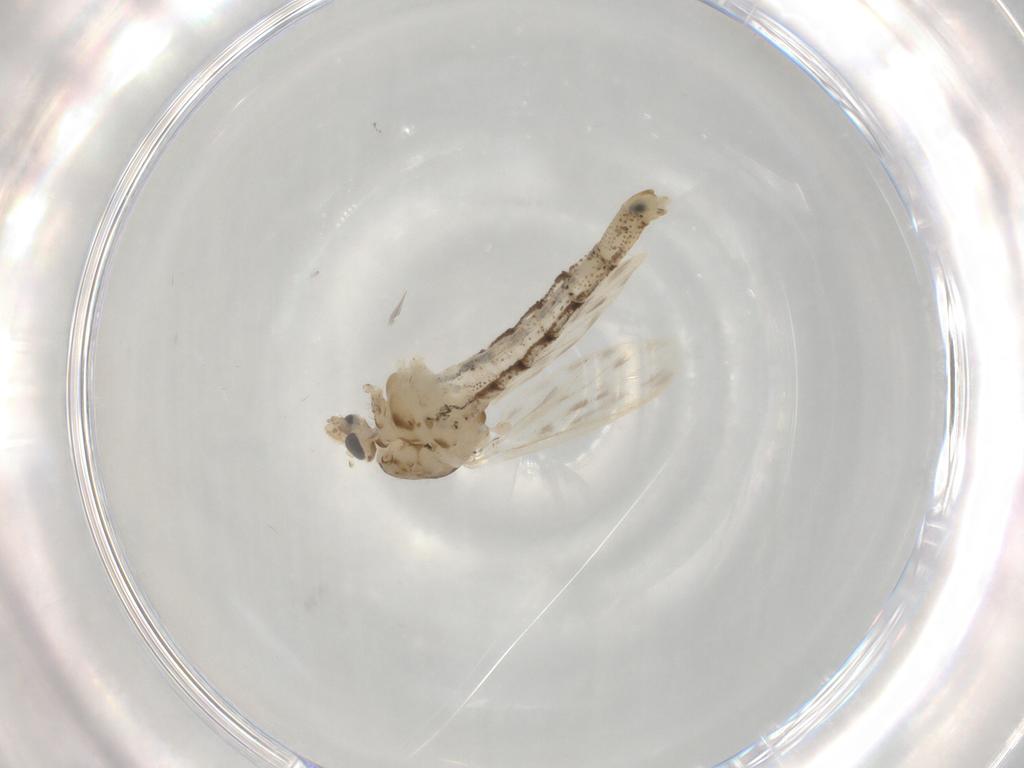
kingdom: Animalia
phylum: Arthropoda
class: Insecta
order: Diptera
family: Chaoboridae
